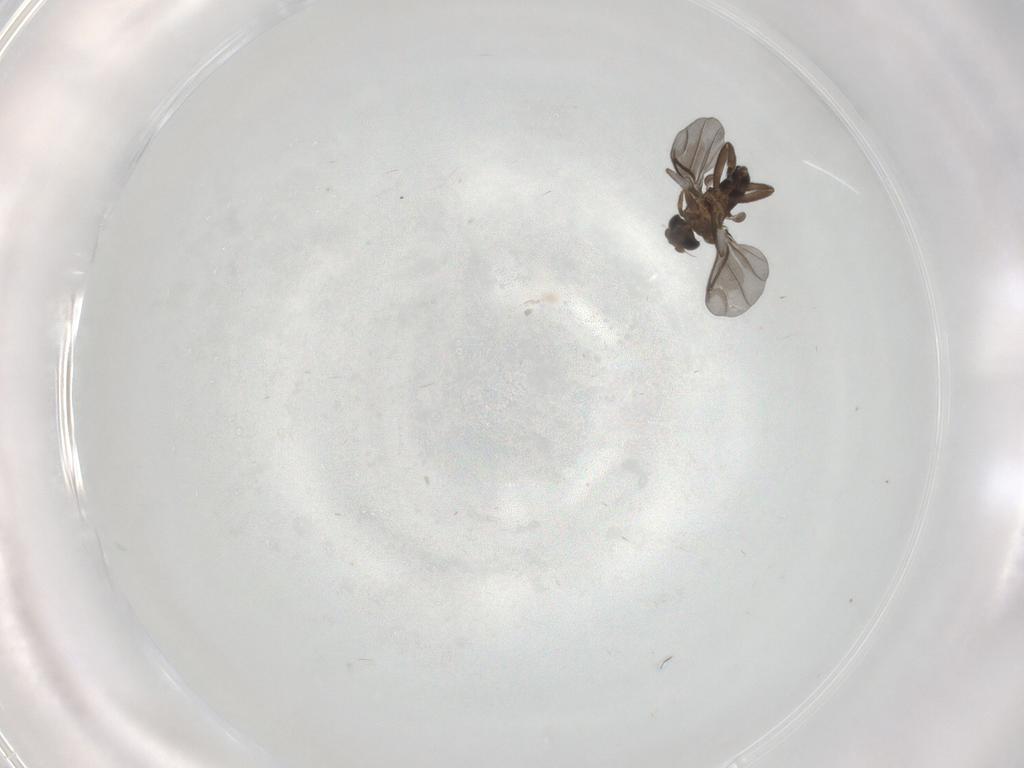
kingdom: Animalia
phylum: Arthropoda
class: Insecta
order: Diptera
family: Phoridae
